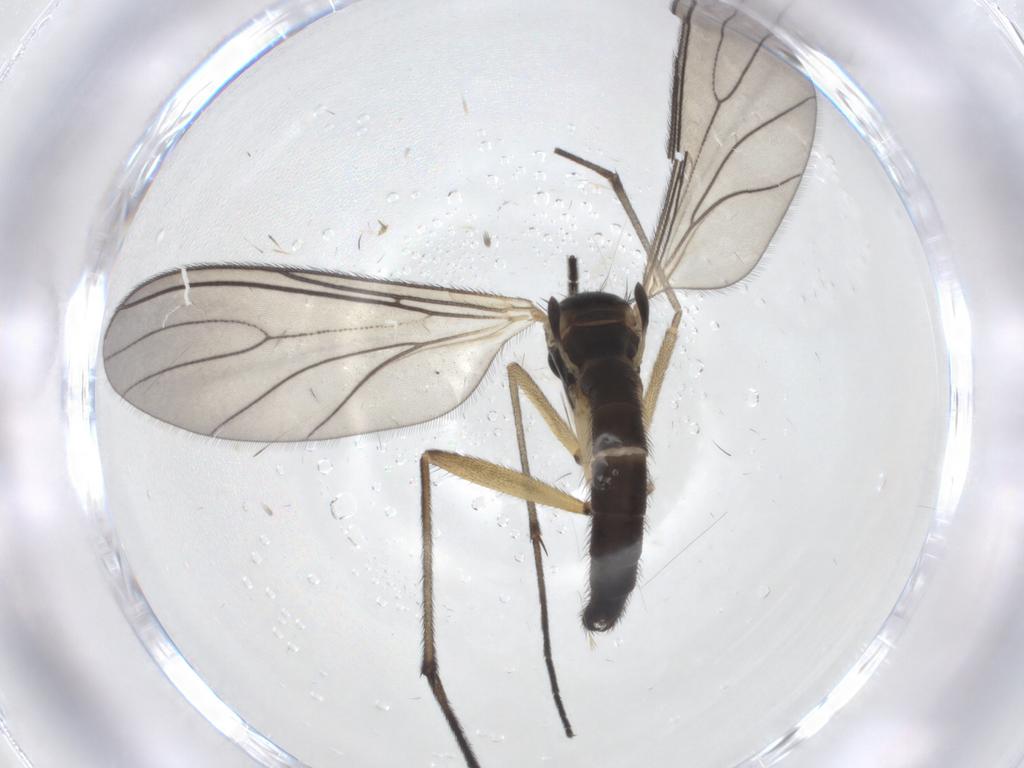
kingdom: Animalia
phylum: Arthropoda
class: Insecta
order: Diptera
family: Sciaridae
